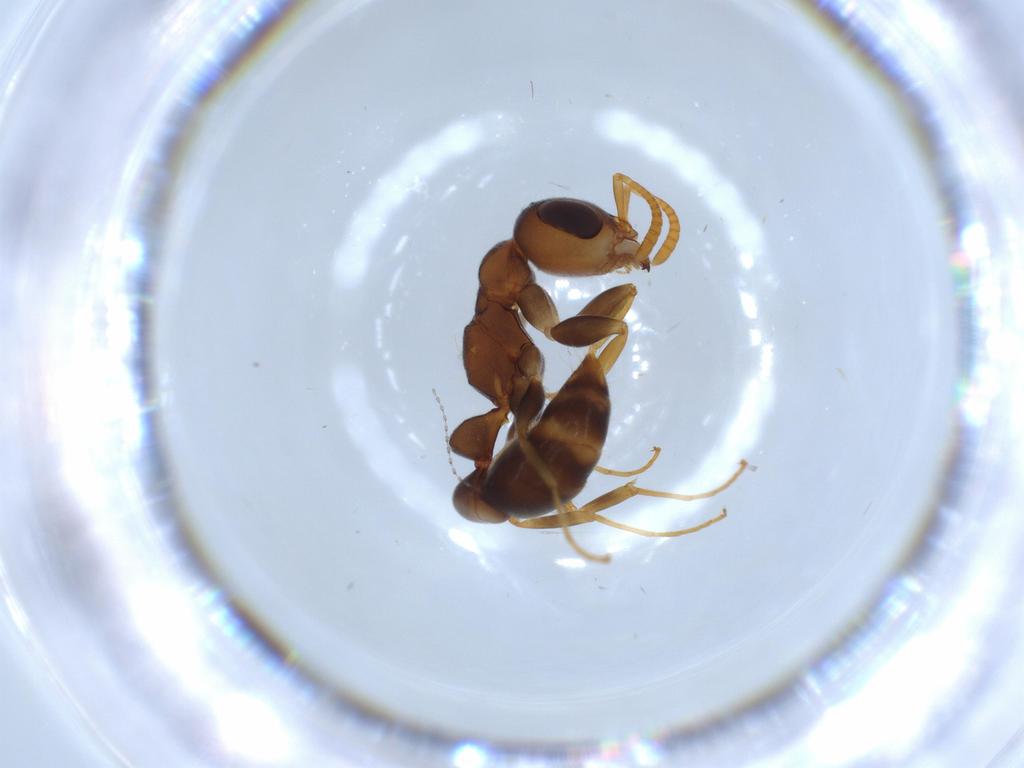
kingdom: Animalia
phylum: Arthropoda
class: Insecta
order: Hymenoptera
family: Formicidae
